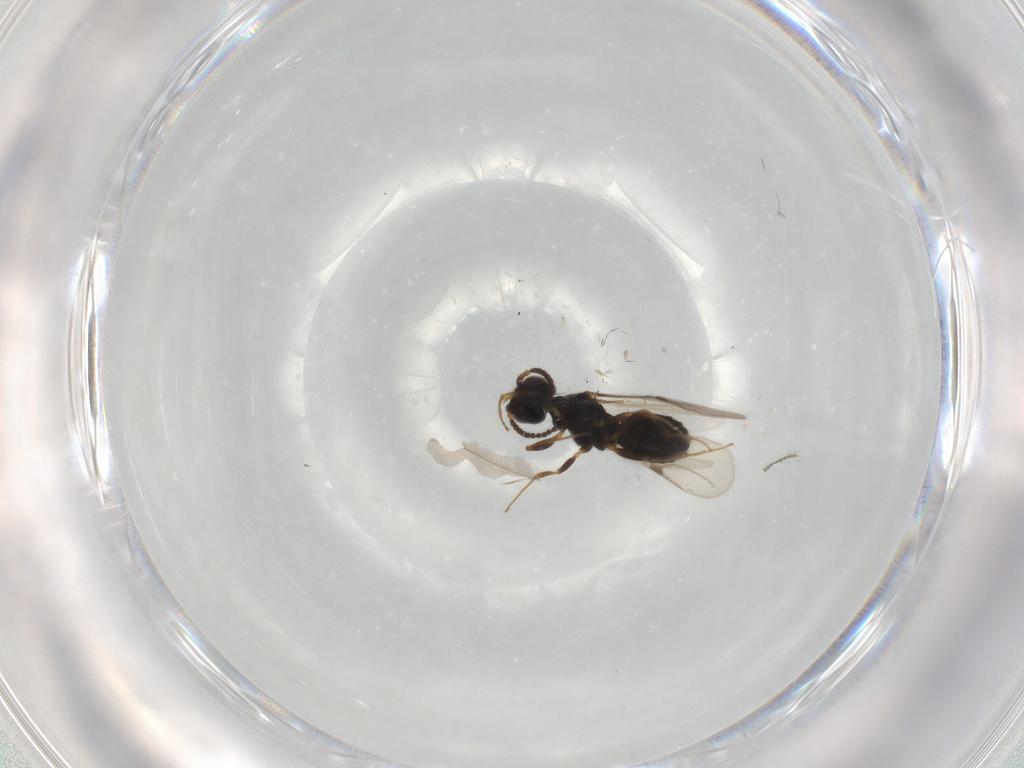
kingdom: Animalia
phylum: Arthropoda
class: Insecta
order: Hymenoptera
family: Bethylidae
